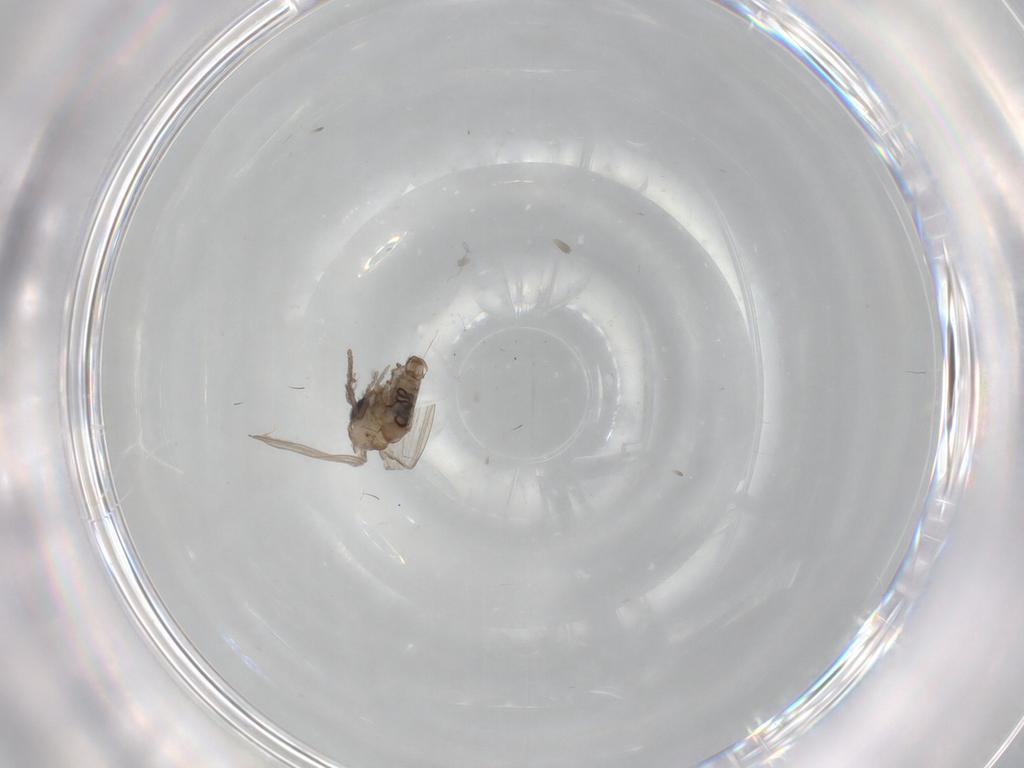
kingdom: Animalia
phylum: Arthropoda
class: Insecta
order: Diptera
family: Psychodidae
